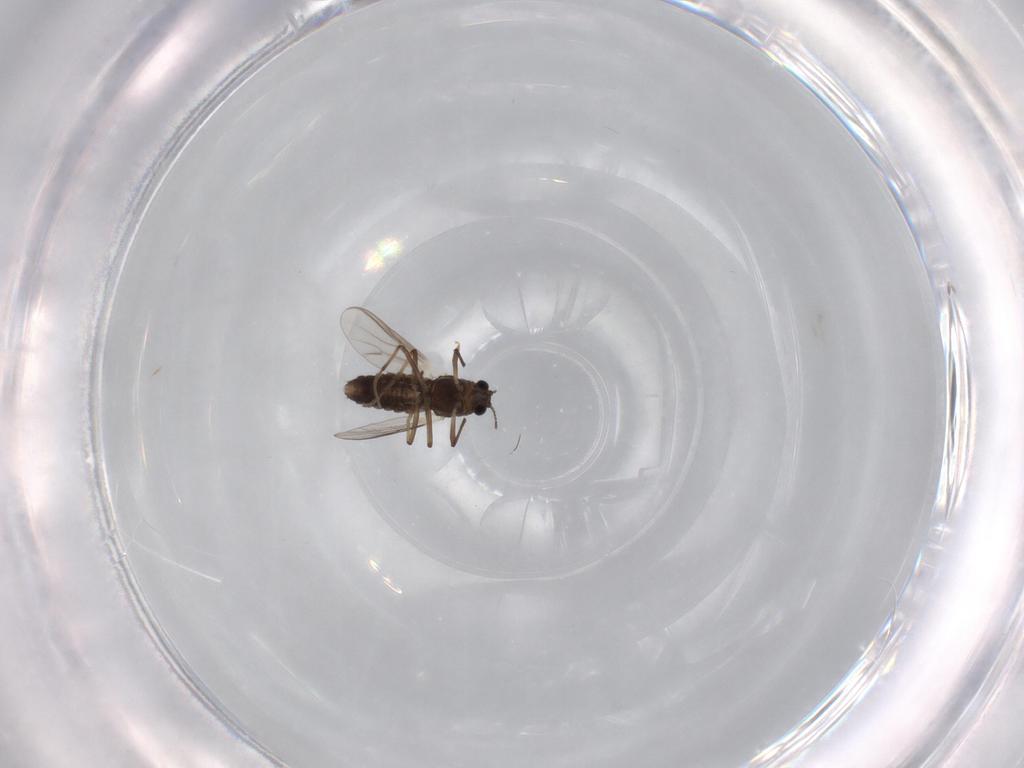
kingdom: Animalia
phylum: Arthropoda
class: Insecta
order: Diptera
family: Chironomidae
